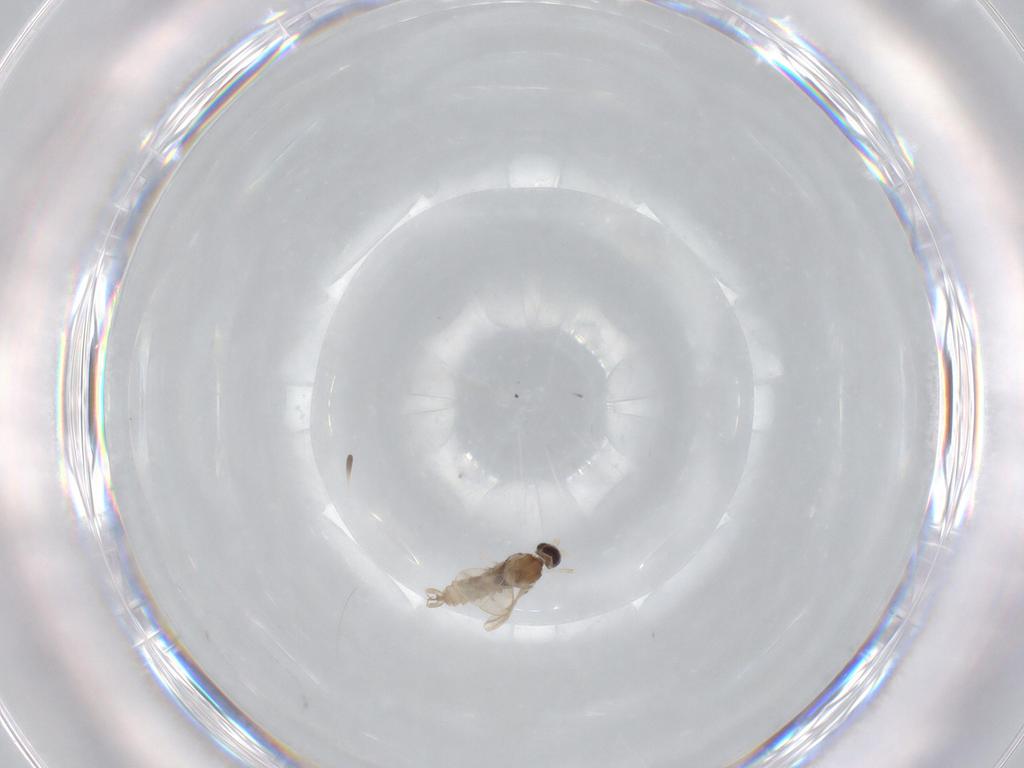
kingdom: Animalia
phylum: Arthropoda
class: Insecta
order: Diptera
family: Cecidomyiidae
